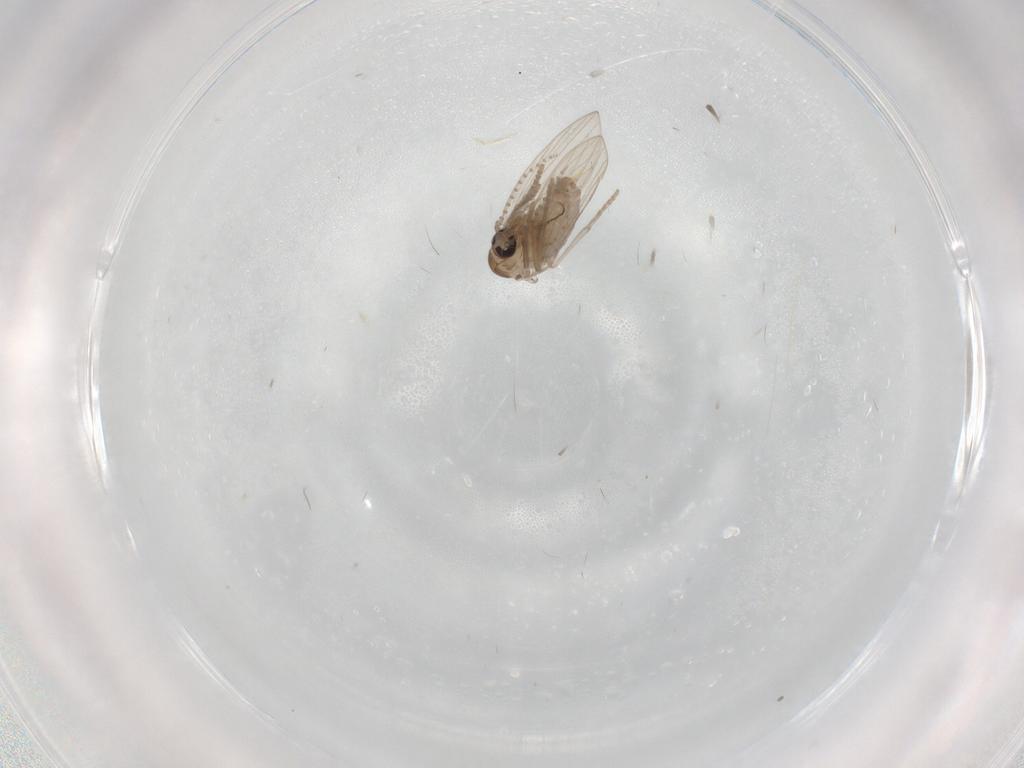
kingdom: Animalia
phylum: Arthropoda
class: Insecta
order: Diptera
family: Psychodidae
